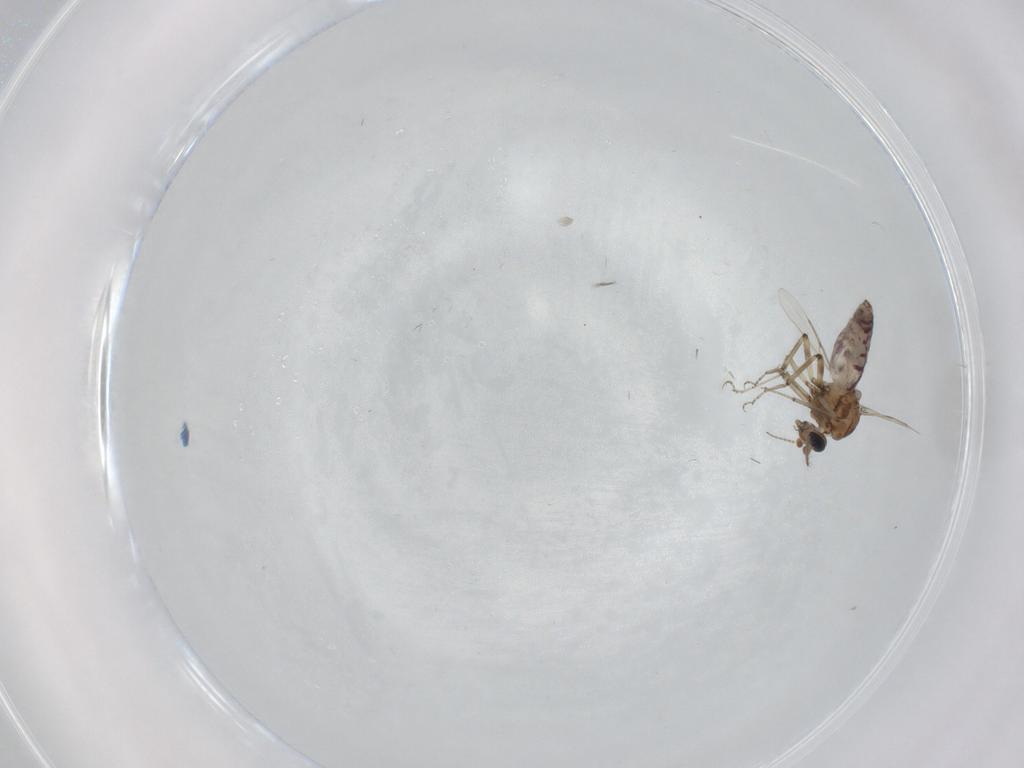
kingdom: Animalia
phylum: Arthropoda
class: Insecta
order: Diptera
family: Ceratopogonidae
